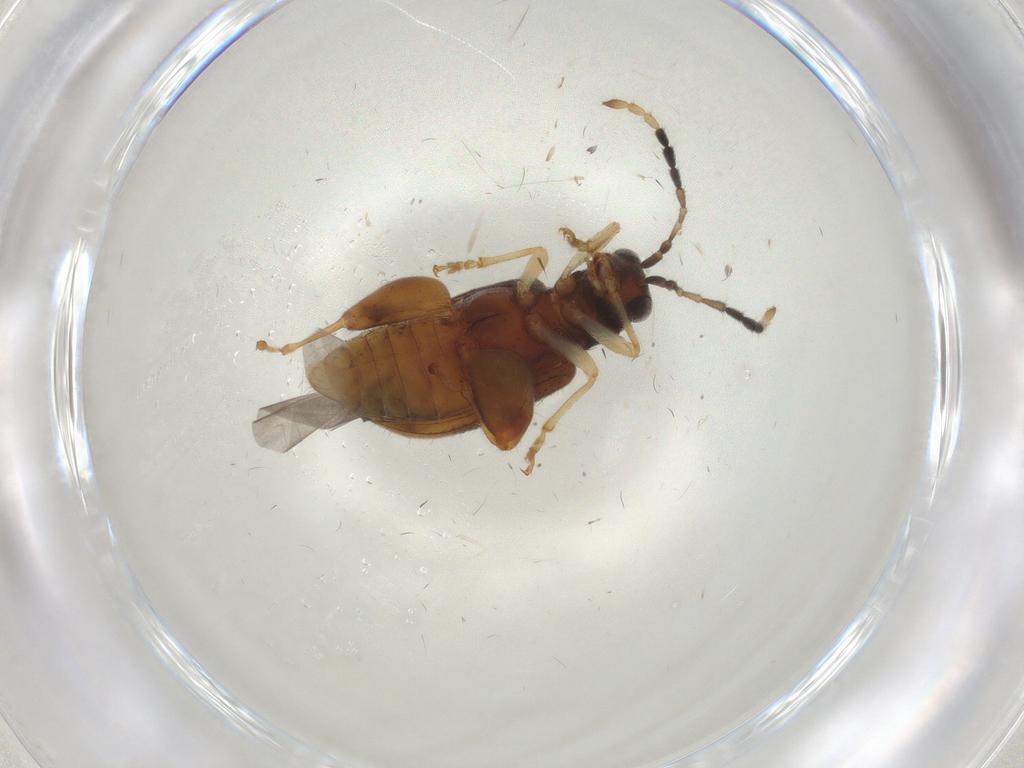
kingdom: Animalia
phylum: Arthropoda
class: Insecta
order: Coleoptera
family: Chrysomelidae
